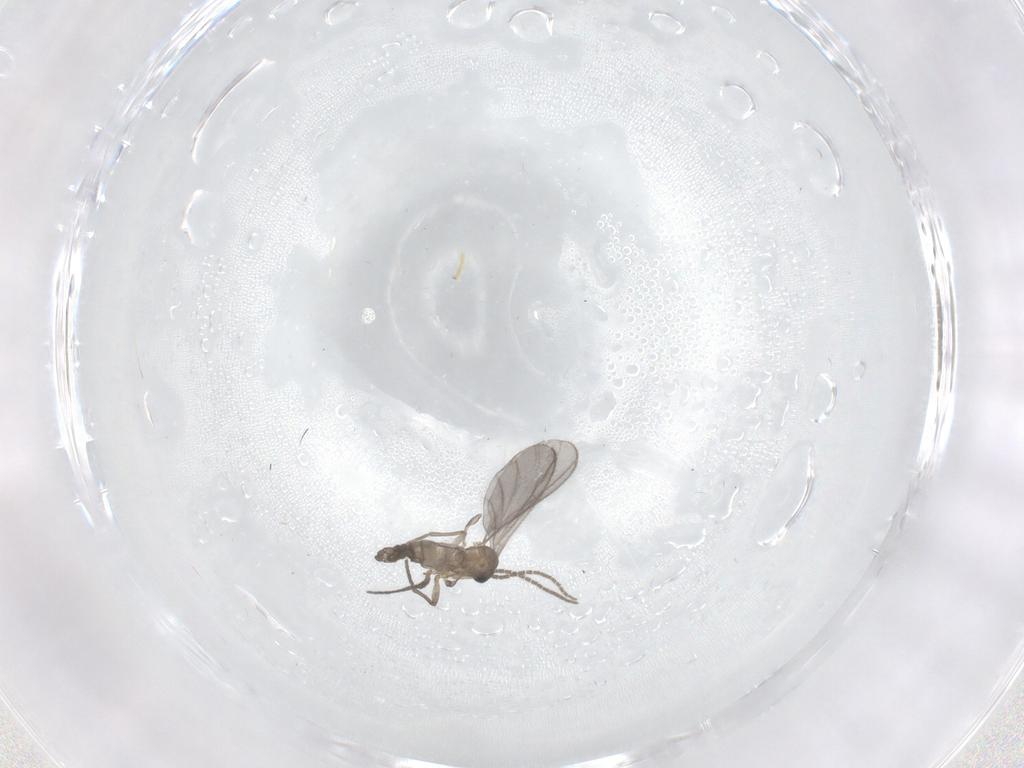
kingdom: Animalia
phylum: Arthropoda
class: Insecta
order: Diptera
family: Sciaridae
